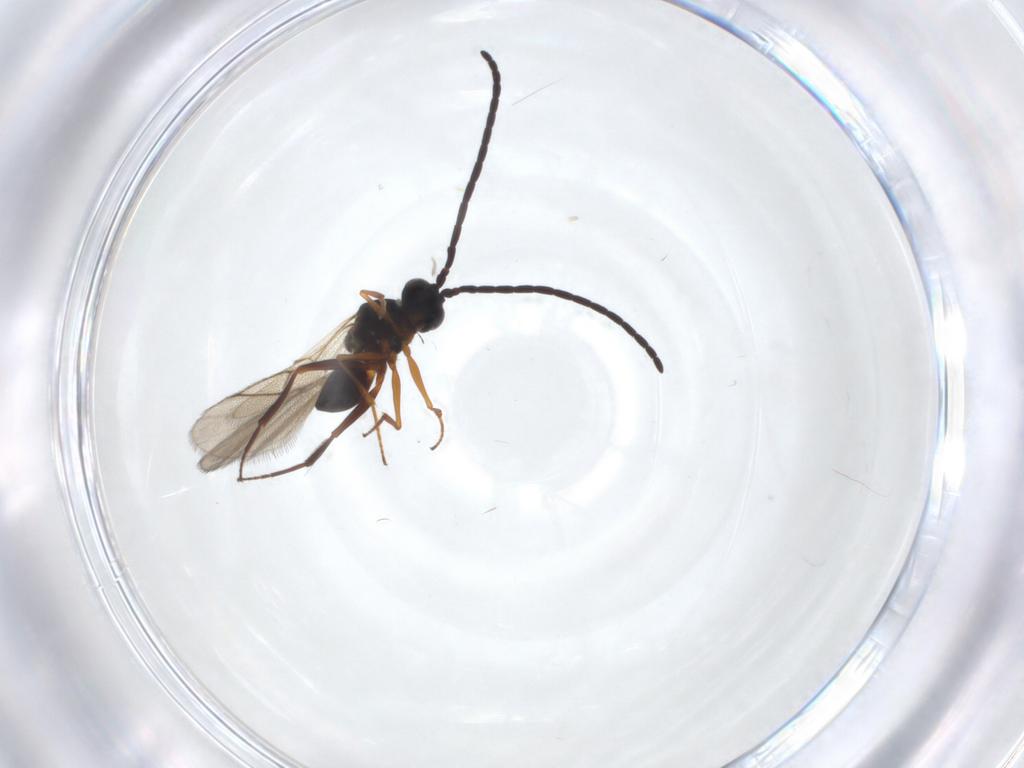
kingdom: Animalia
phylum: Arthropoda
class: Insecta
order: Hymenoptera
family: Figitidae
